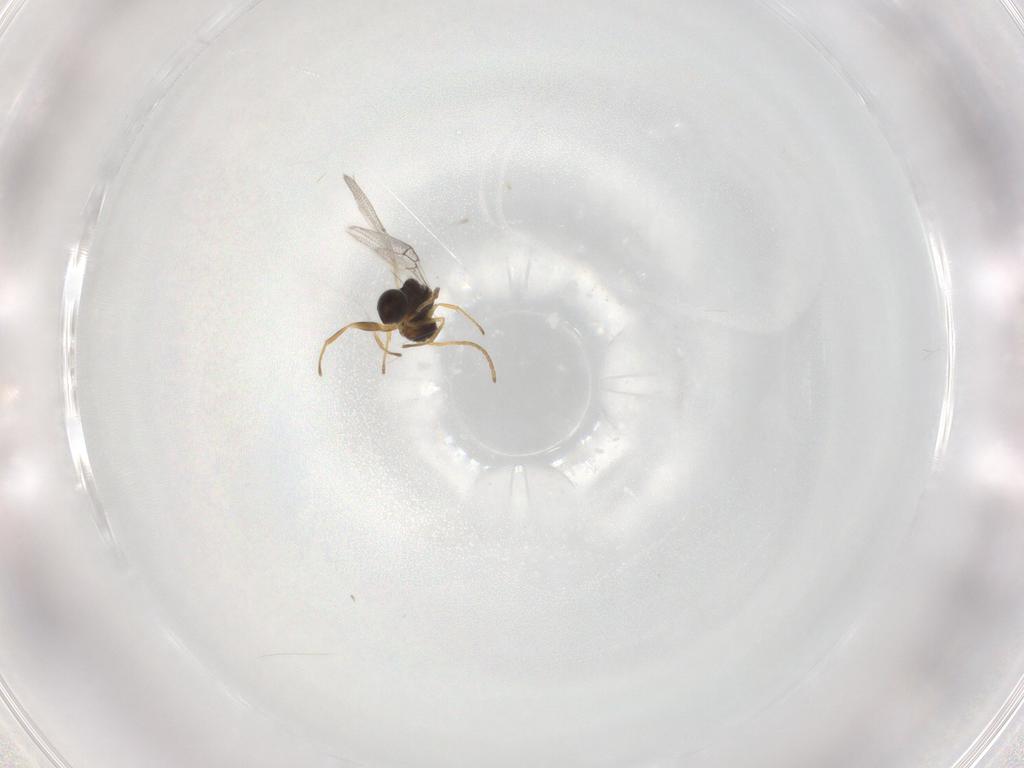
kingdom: Animalia
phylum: Arthropoda
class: Insecta
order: Hymenoptera
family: Figitidae
